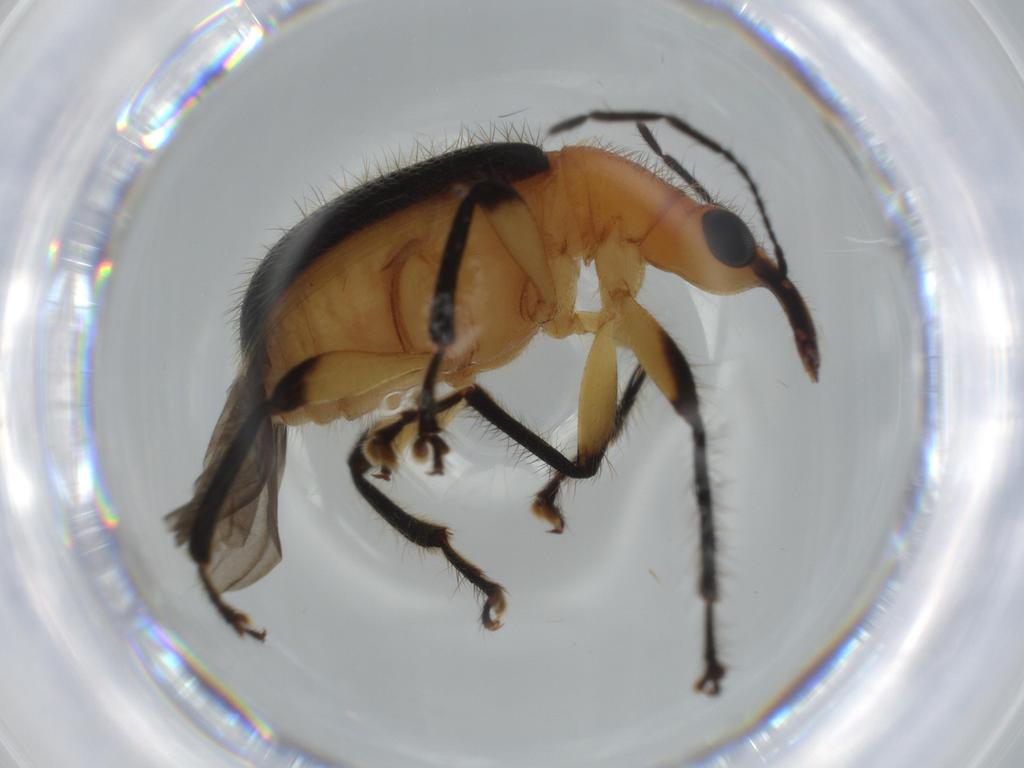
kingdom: Animalia
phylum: Arthropoda
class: Insecta
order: Coleoptera
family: Attelabidae
